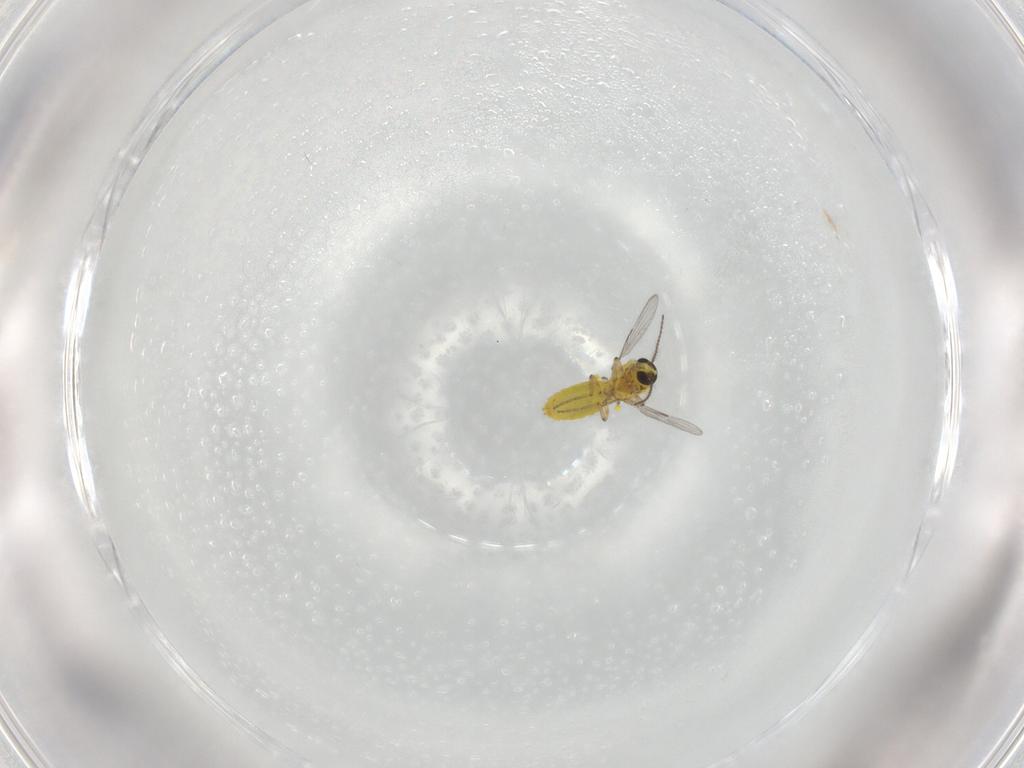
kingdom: Animalia
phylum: Arthropoda
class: Insecta
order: Diptera
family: Ceratopogonidae
